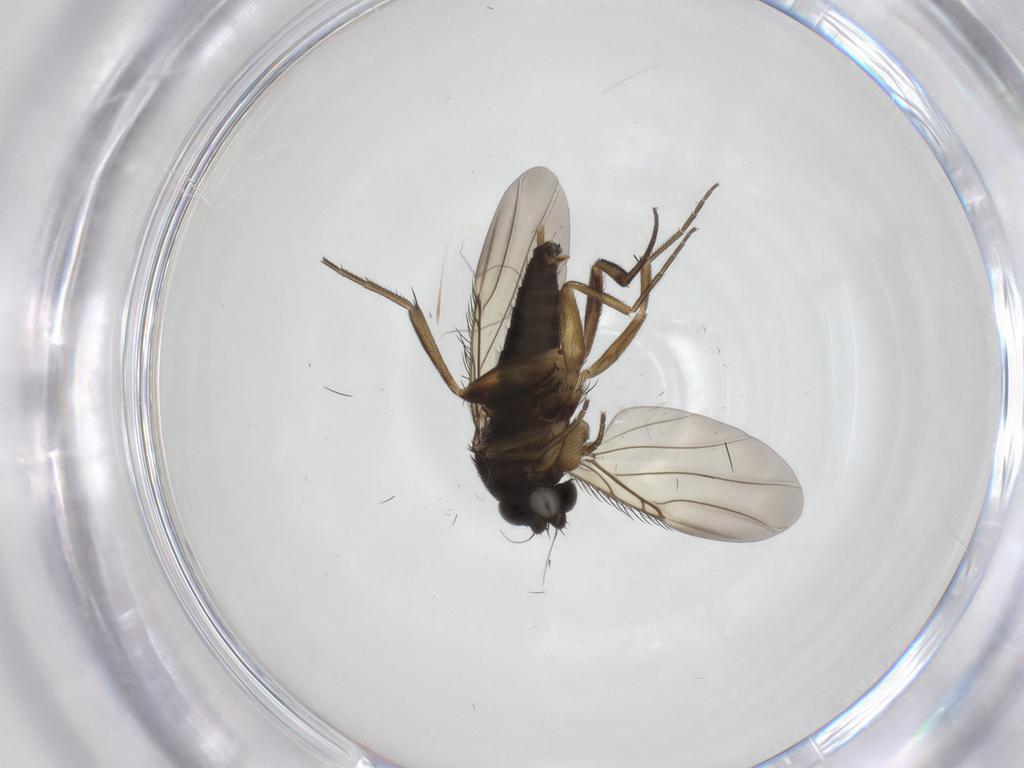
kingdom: Animalia
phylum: Arthropoda
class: Insecta
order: Diptera
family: Phoridae
